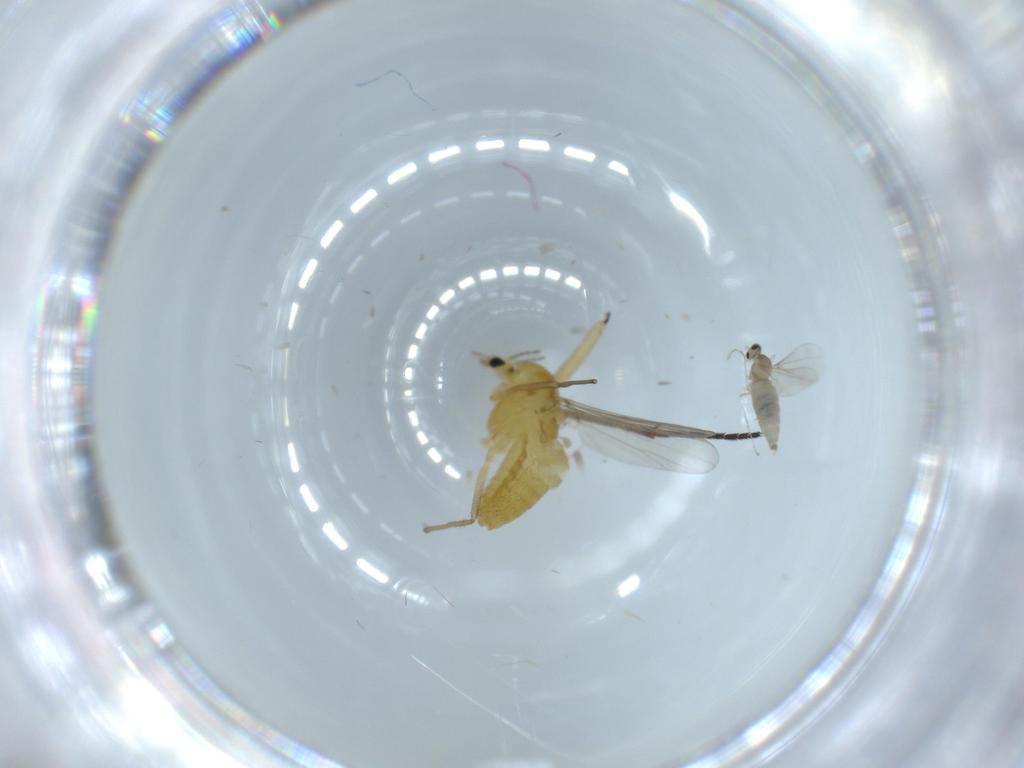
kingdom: Animalia
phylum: Arthropoda
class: Insecta
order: Diptera
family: Chironomidae
